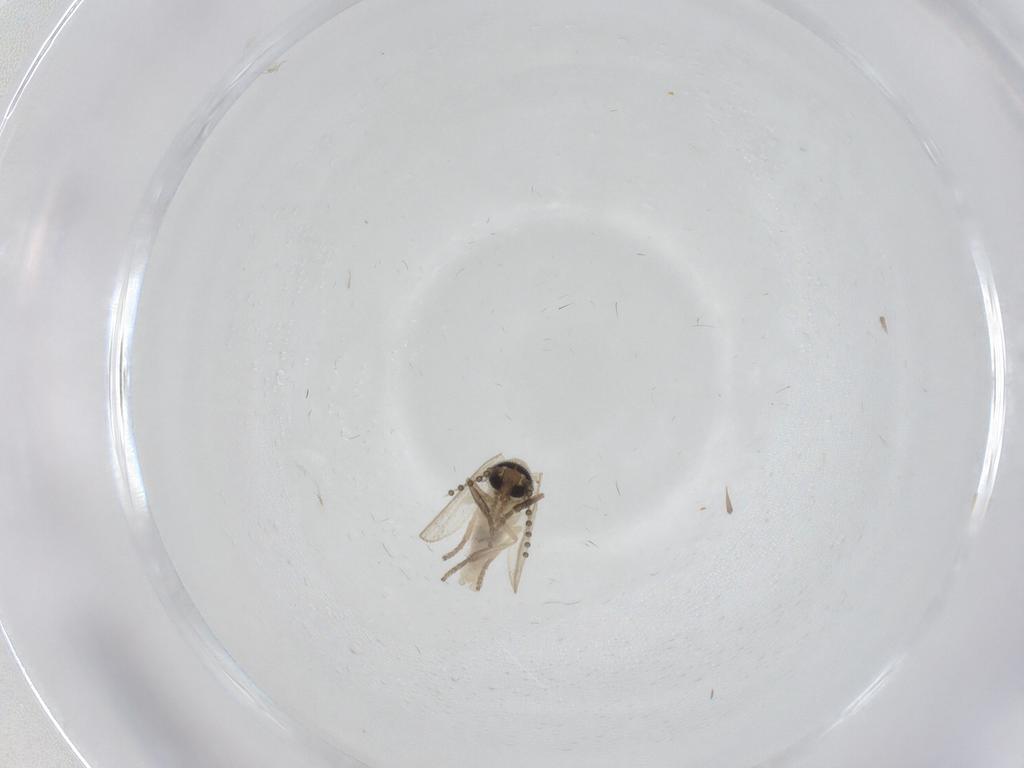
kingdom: Animalia
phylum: Arthropoda
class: Insecta
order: Diptera
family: Psychodidae
